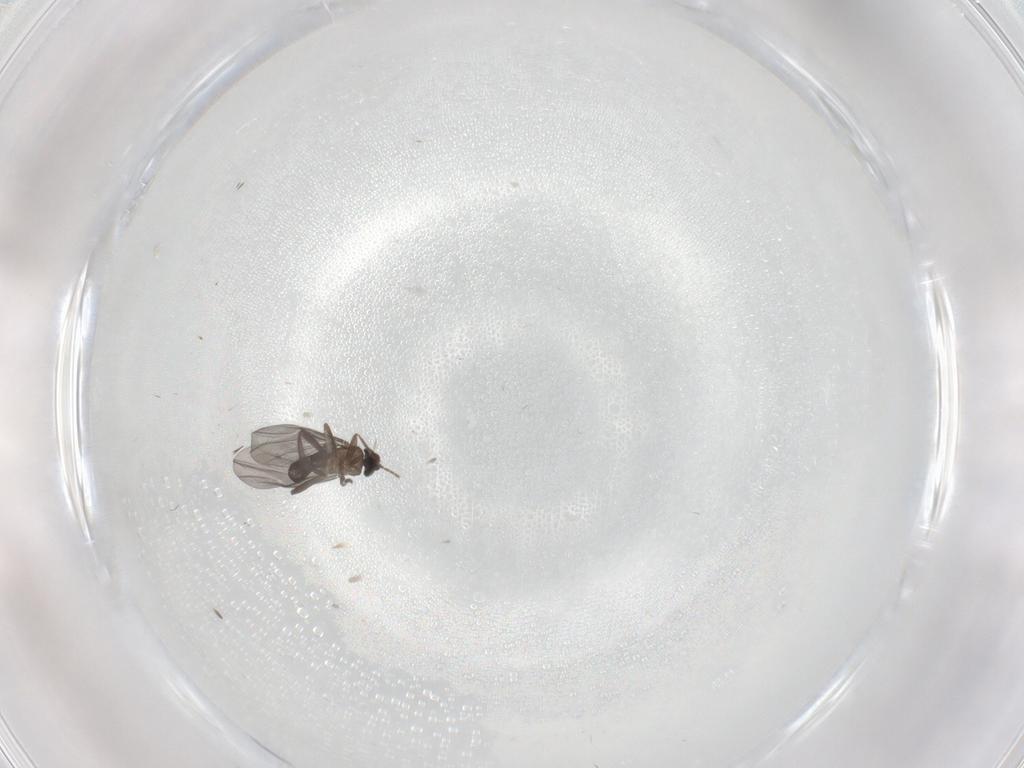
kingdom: Animalia
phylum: Arthropoda
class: Insecta
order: Diptera
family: Phoridae
